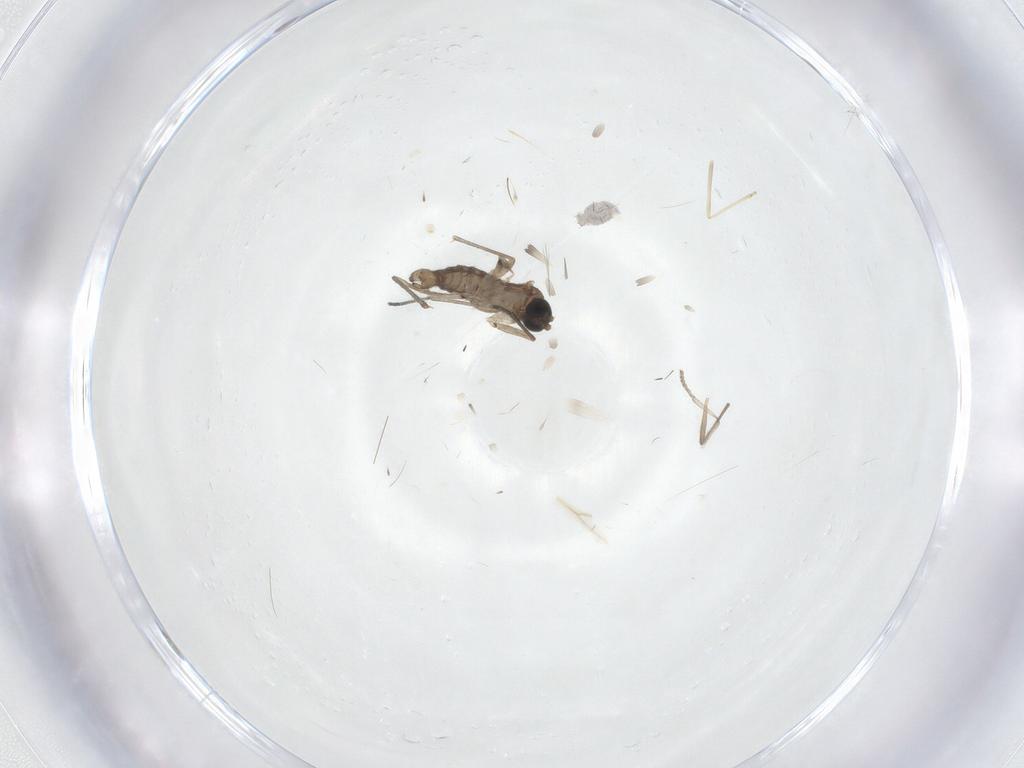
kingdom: Animalia
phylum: Arthropoda
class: Insecta
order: Diptera
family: Sciaridae
